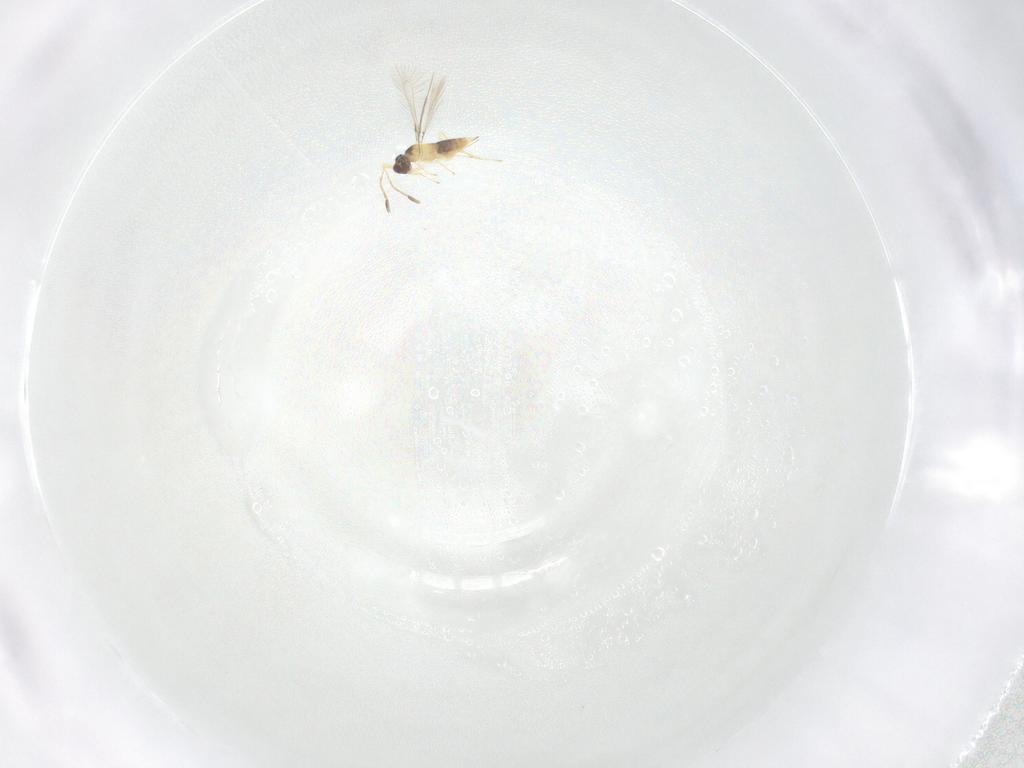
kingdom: Animalia
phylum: Arthropoda
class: Insecta
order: Hymenoptera
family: Mymaridae
